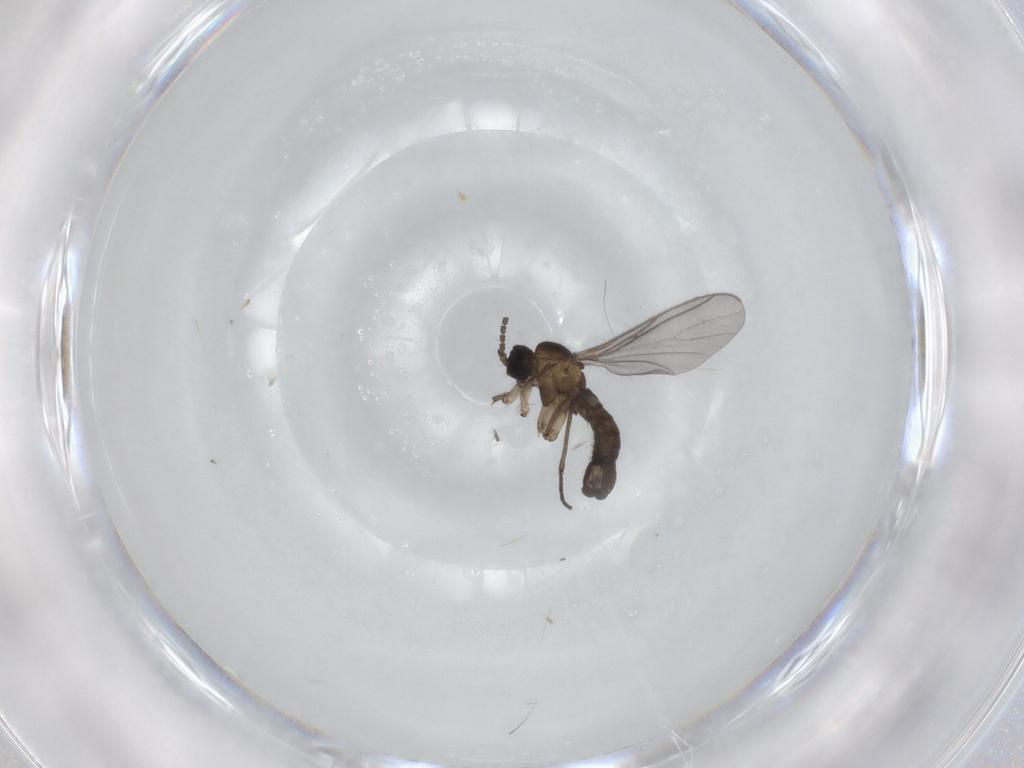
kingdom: Animalia
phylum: Arthropoda
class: Insecta
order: Diptera
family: Sciaridae
